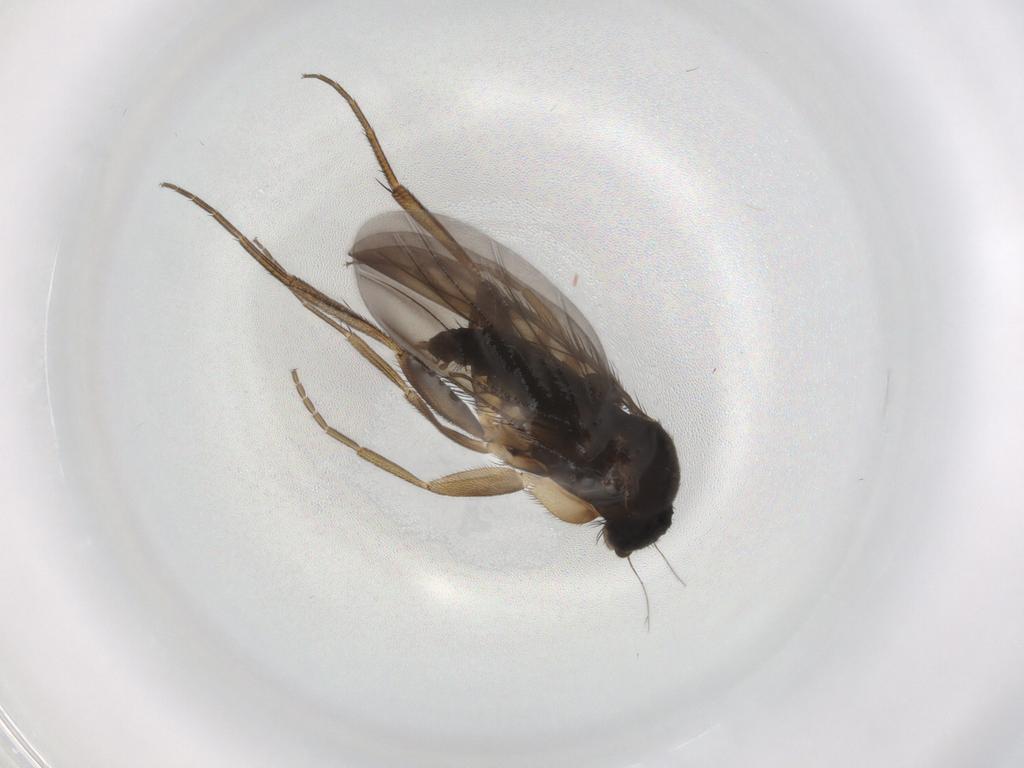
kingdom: Animalia
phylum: Arthropoda
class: Insecta
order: Diptera
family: Phoridae
